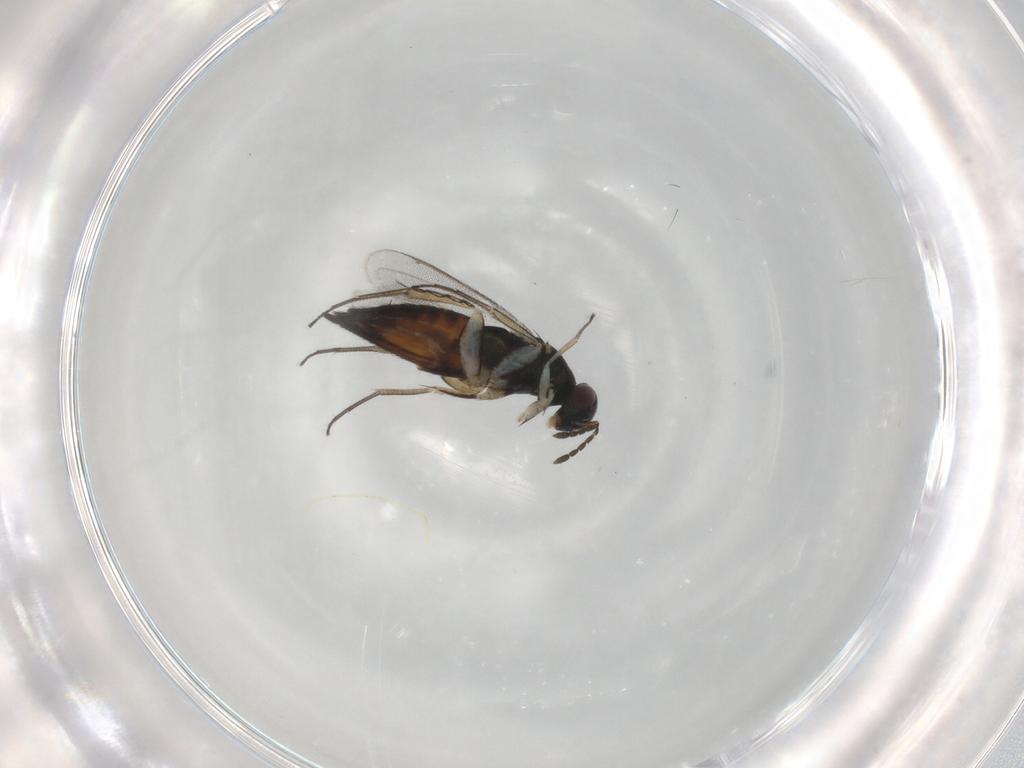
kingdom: Animalia
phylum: Arthropoda
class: Insecta
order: Hymenoptera
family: Eulophidae
